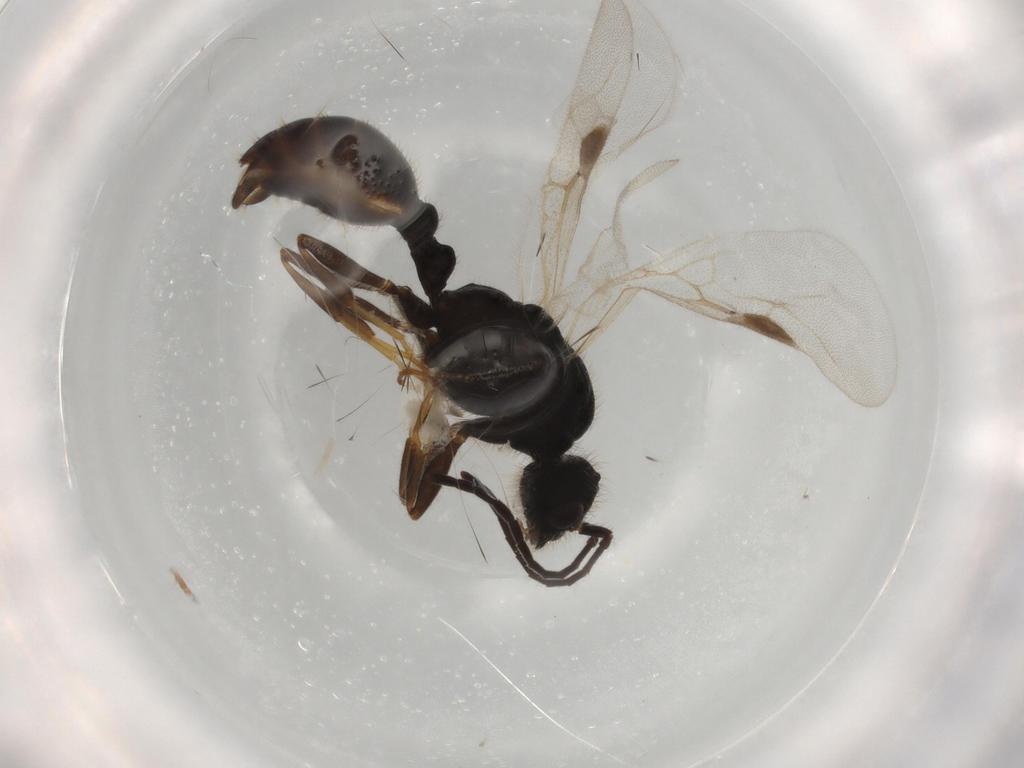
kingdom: Animalia
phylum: Arthropoda
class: Insecta
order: Hymenoptera
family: Formicidae
